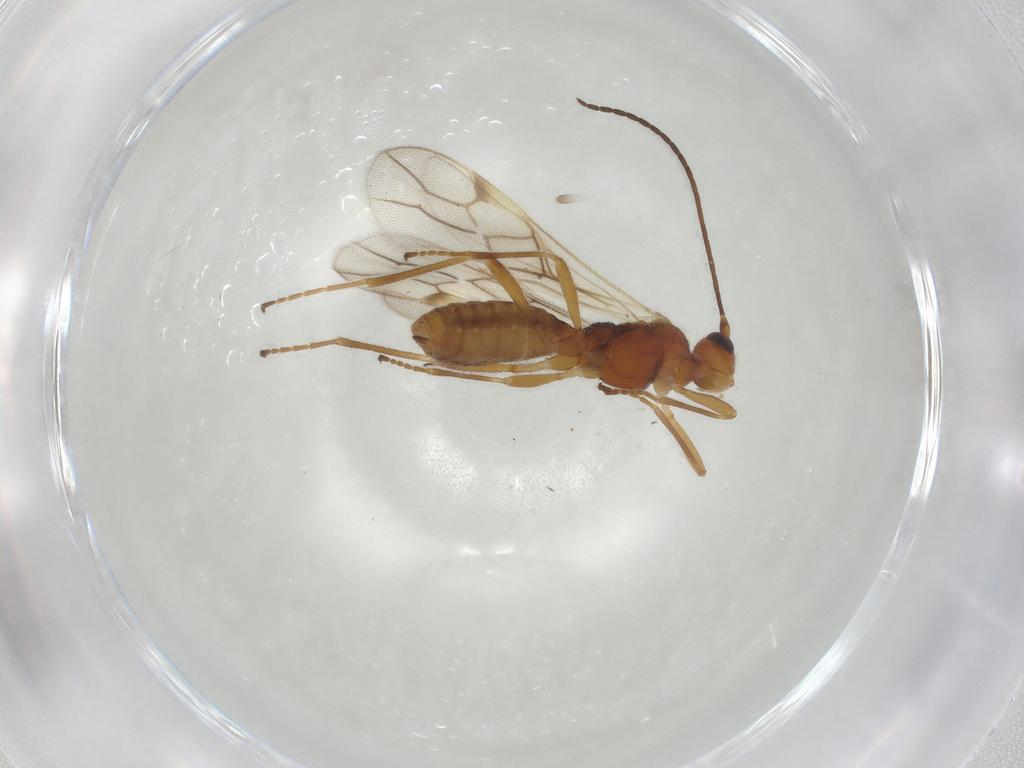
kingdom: Animalia
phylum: Arthropoda
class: Insecta
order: Hymenoptera
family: Braconidae
